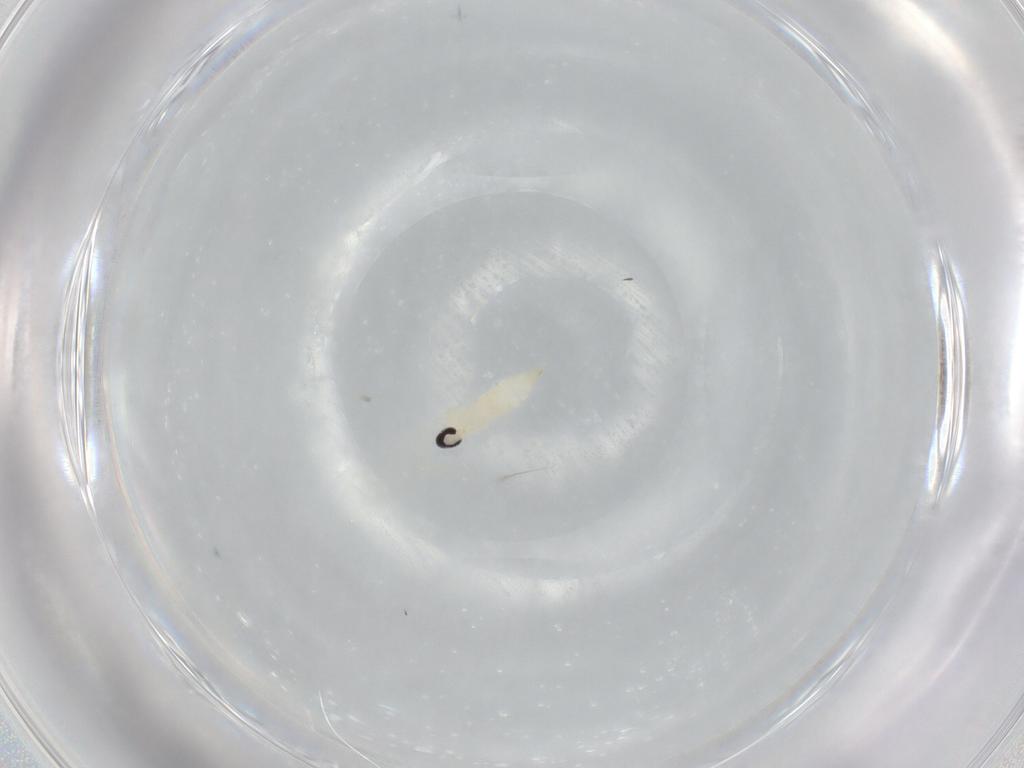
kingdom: Animalia
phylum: Arthropoda
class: Insecta
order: Diptera
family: Cecidomyiidae
